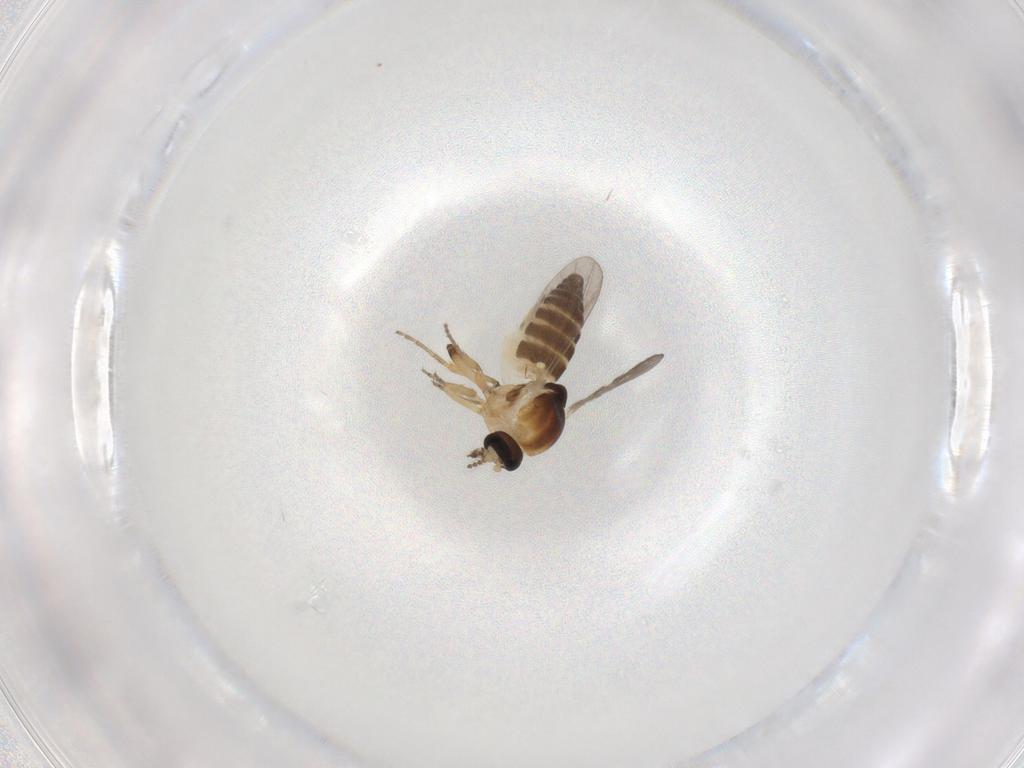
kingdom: Animalia
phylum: Arthropoda
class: Insecta
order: Diptera
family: Ceratopogonidae
